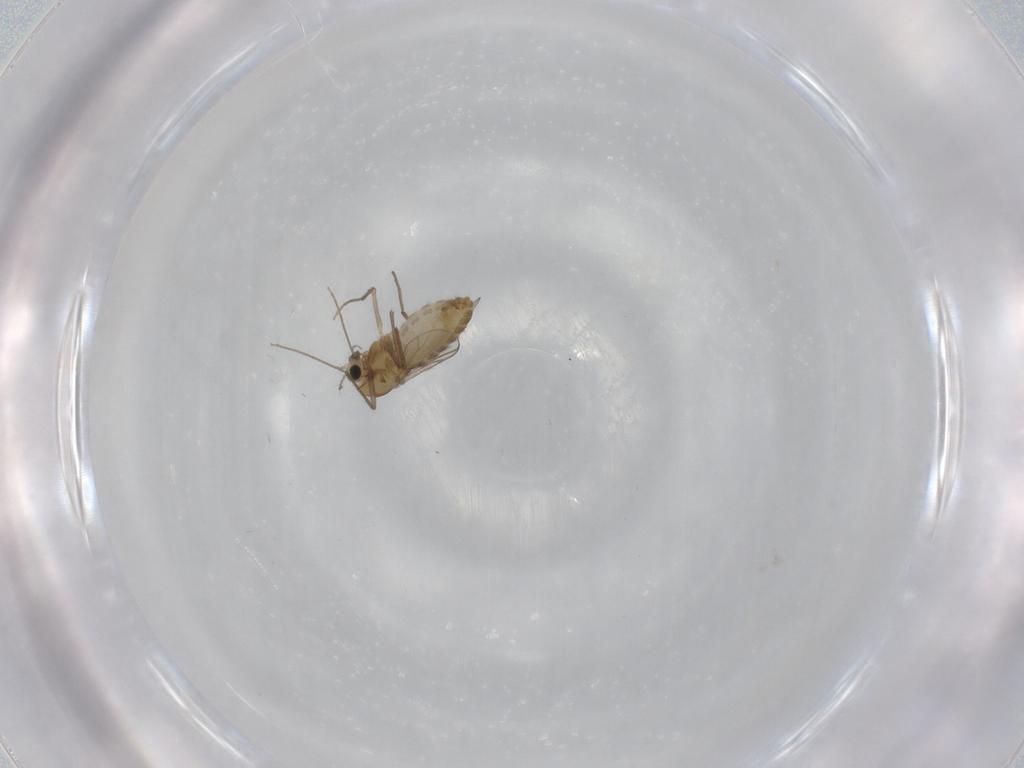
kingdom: Animalia
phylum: Arthropoda
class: Insecta
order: Diptera
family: Chironomidae
